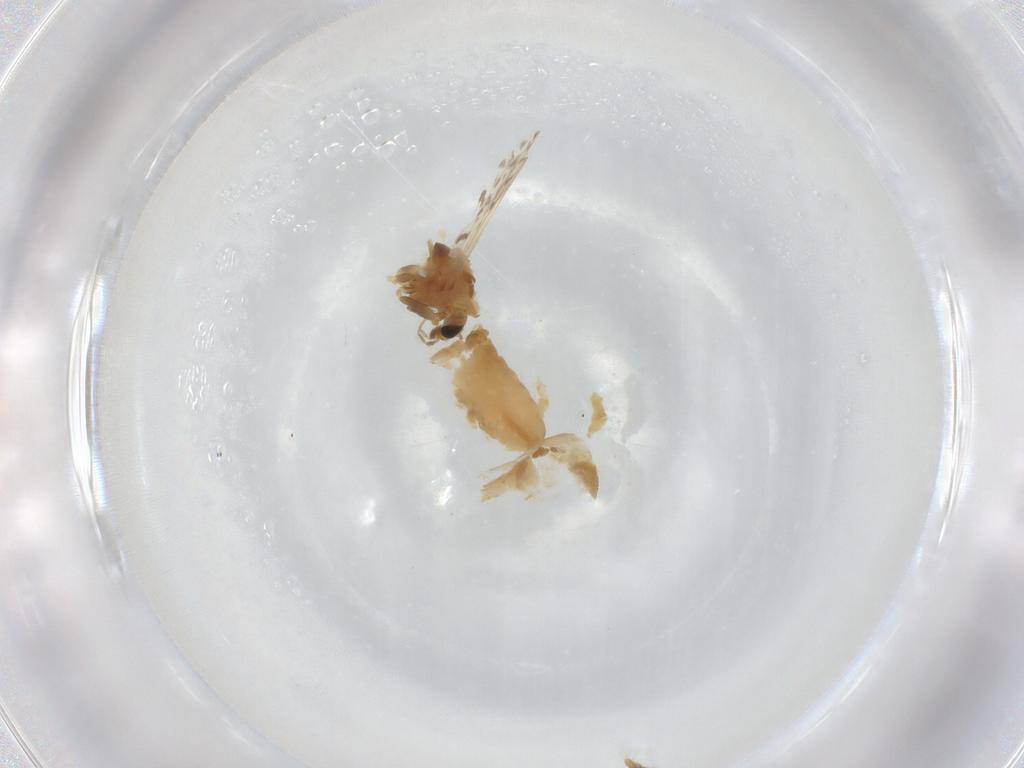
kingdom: Animalia
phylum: Arthropoda
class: Insecta
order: Diptera
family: Chironomidae
